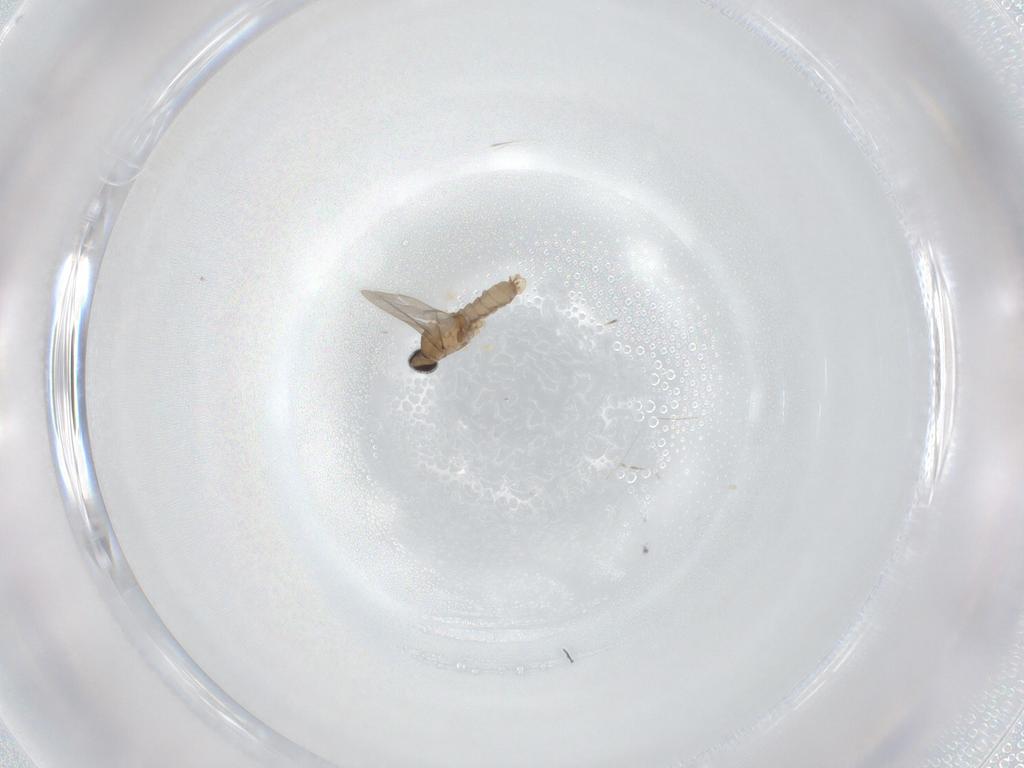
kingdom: Animalia
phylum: Arthropoda
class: Insecta
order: Diptera
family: Cecidomyiidae
